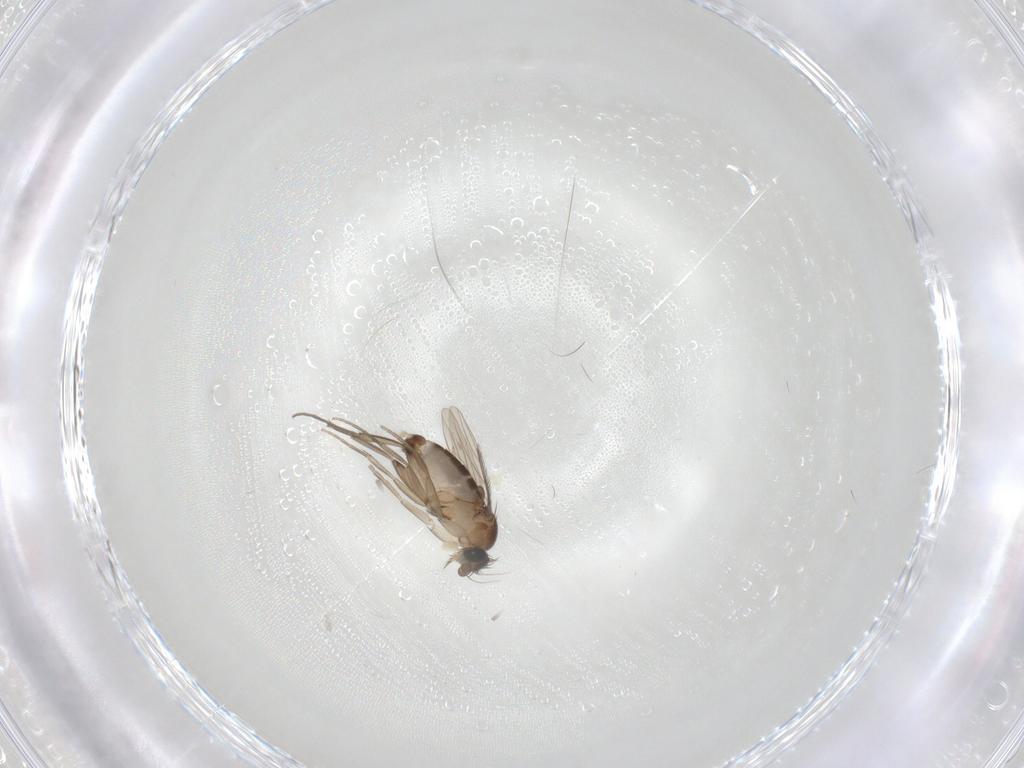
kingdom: Animalia
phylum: Arthropoda
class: Insecta
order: Diptera
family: Phoridae
